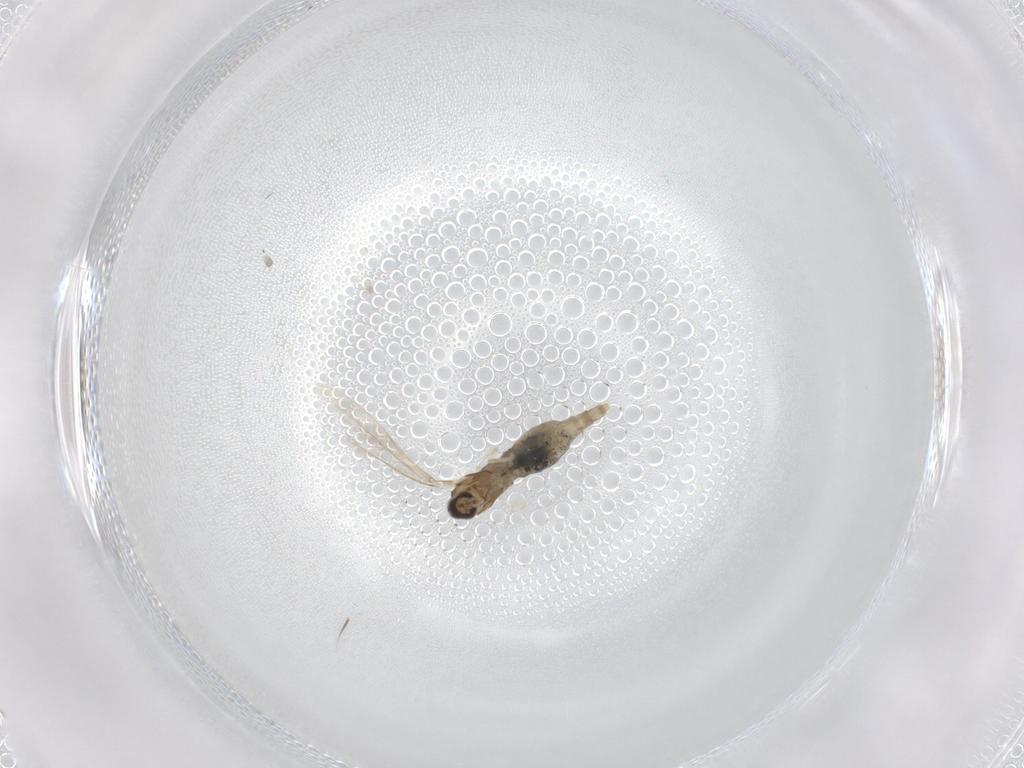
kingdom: Animalia
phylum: Arthropoda
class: Insecta
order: Diptera
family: Cecidomyiidae
